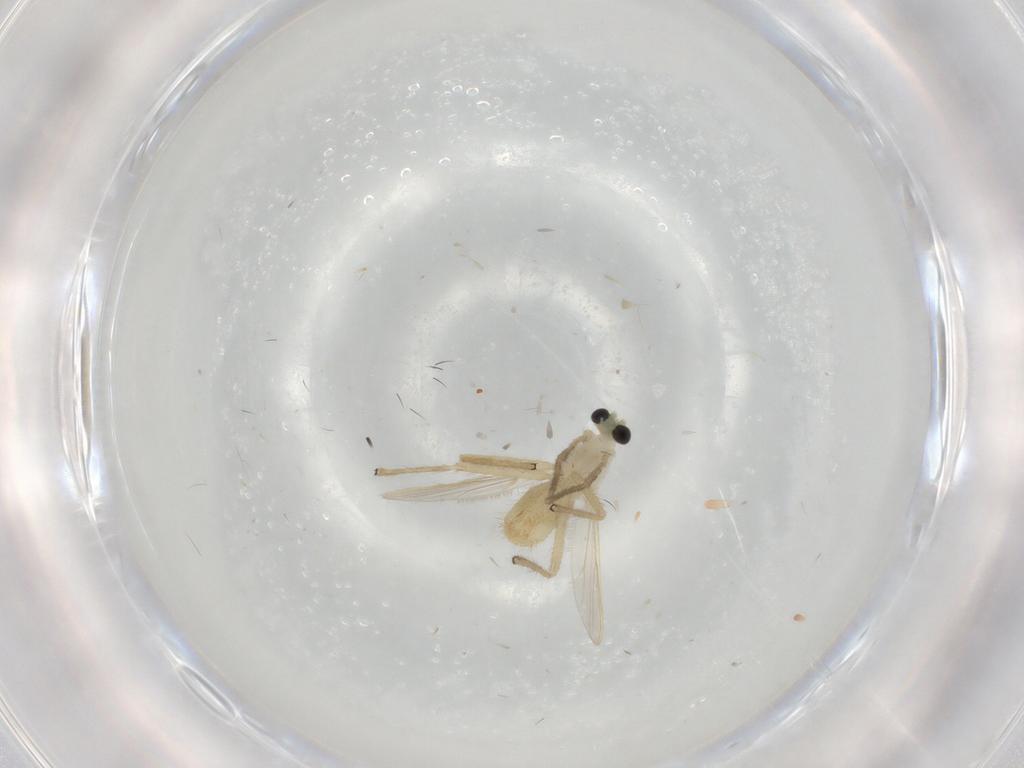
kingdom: Animalia
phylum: Arthropoda
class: Insecta
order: Diptera
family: Chironomidae
